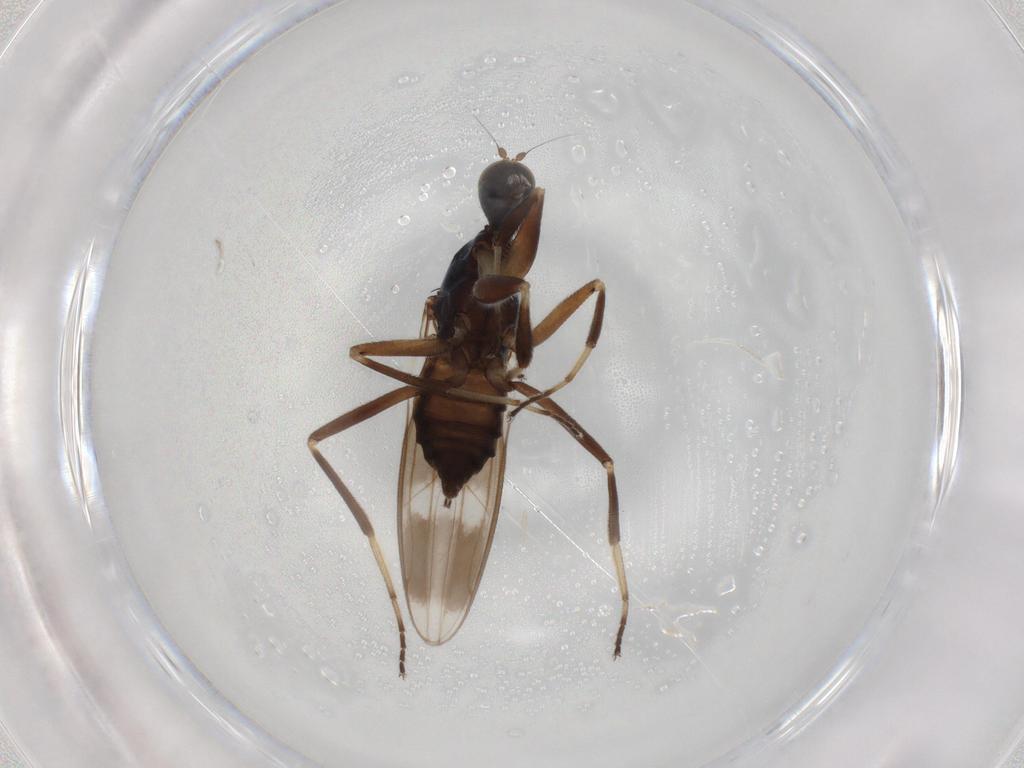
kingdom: Animalia
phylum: Arthropoda
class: Insecta
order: Diptera
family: Hybotidae
